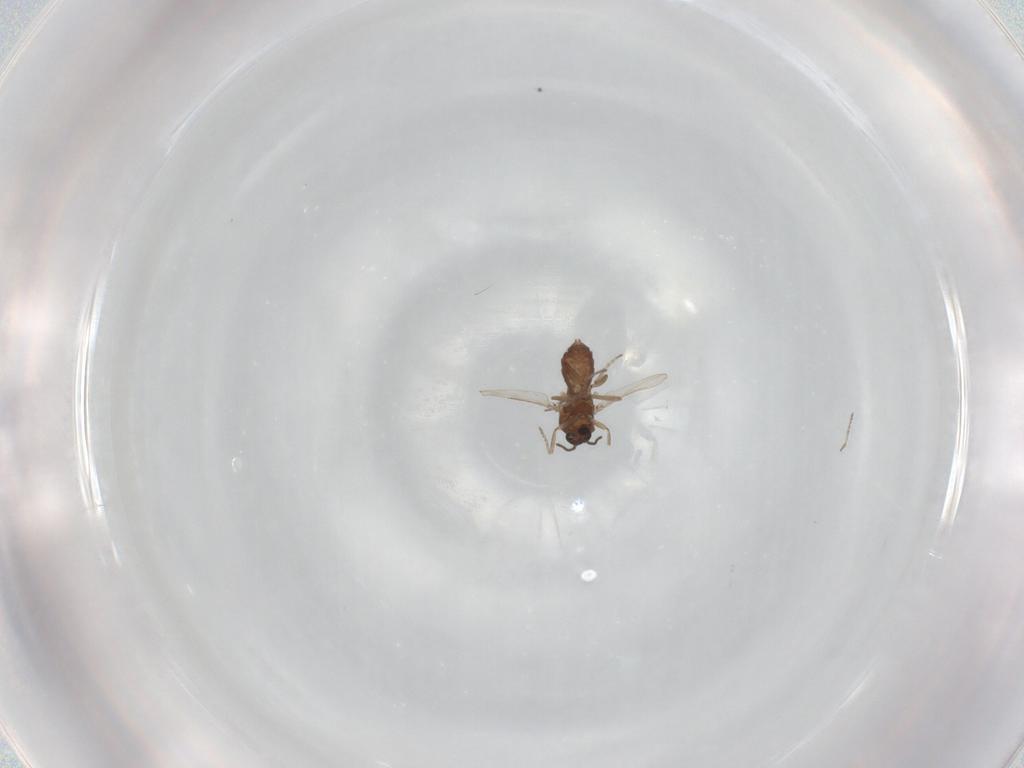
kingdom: Animalia
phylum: Arthropoda
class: Insecta
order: Diptera
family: Ceratopogonidae
